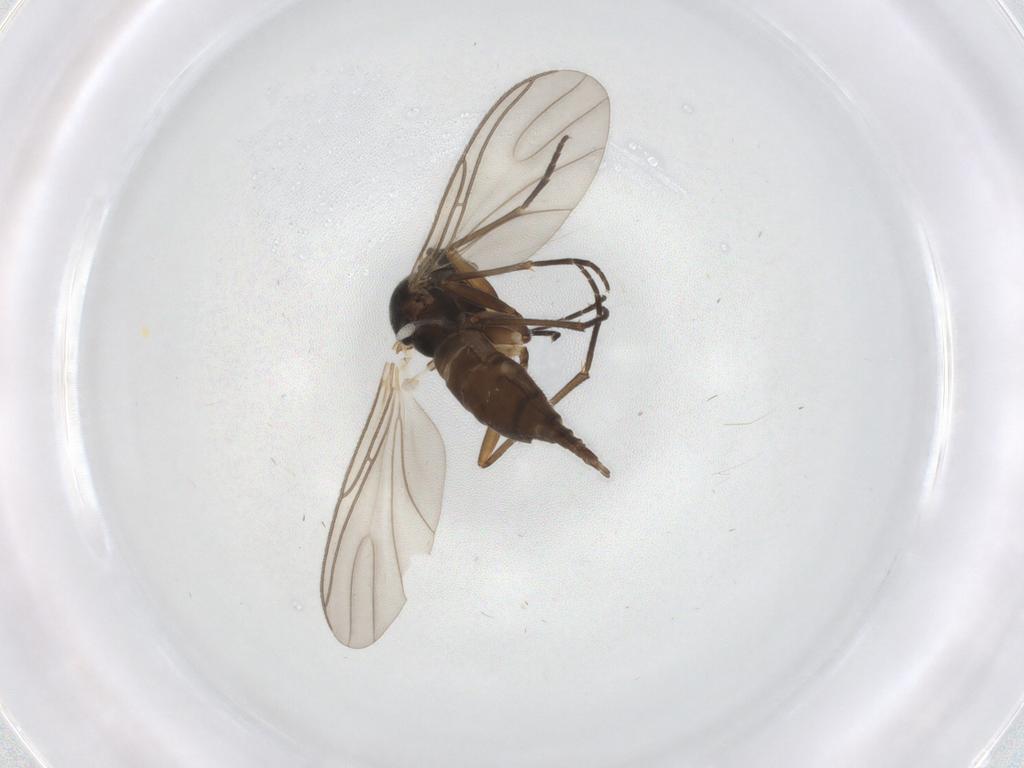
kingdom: Animalia
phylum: Arthropoda
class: Insecta
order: Diptera
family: Sciaridae
